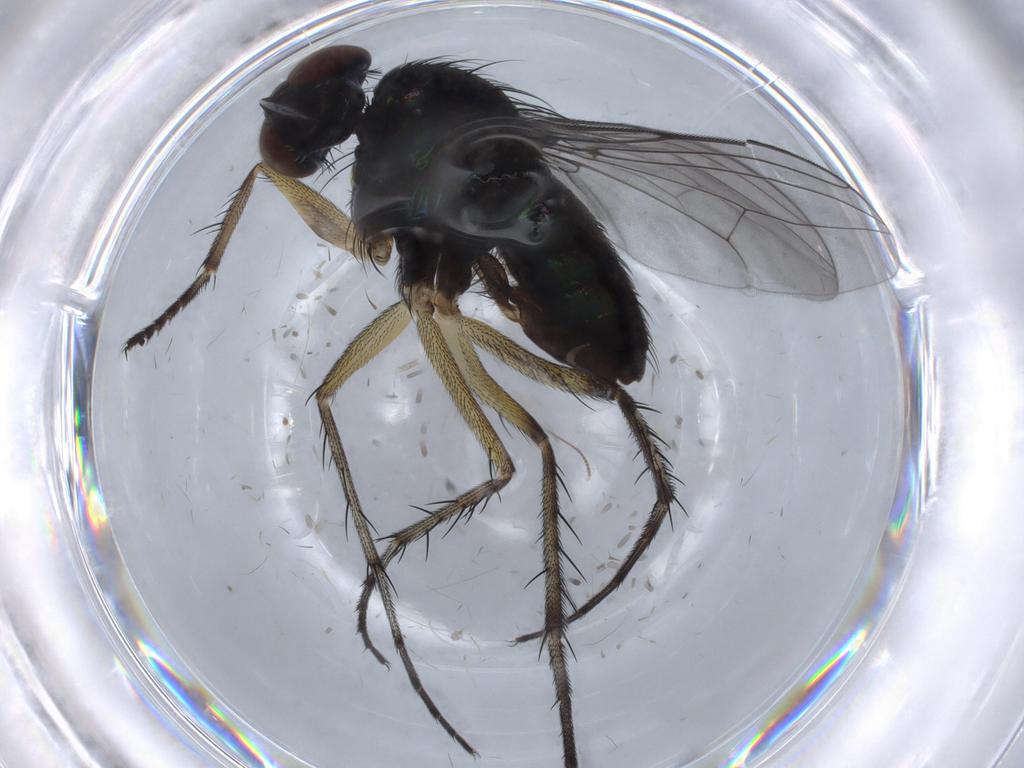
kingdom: Animalia
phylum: Arthropoda
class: Insecta
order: Diptera
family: Dolichopodidae
